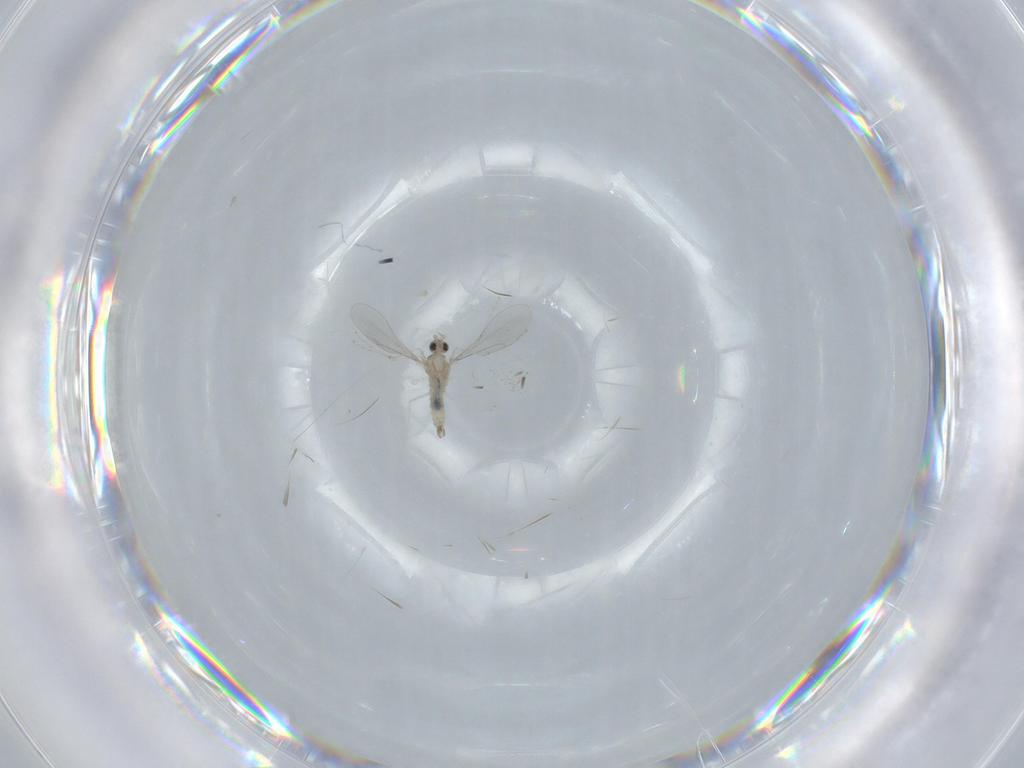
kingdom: Animalia
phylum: Arthropoda
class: Insecta
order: Diptera
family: Cecidomyiidae
